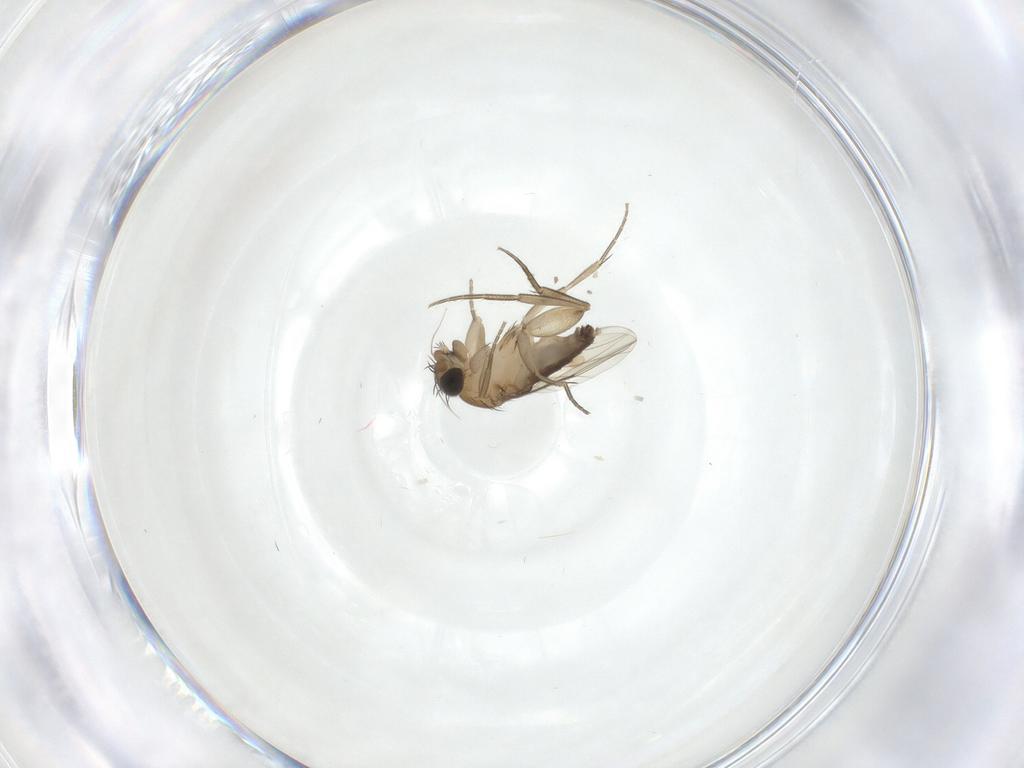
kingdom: Animalia
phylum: Arthropoda
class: Insecta
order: Diptera
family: Phoridae
